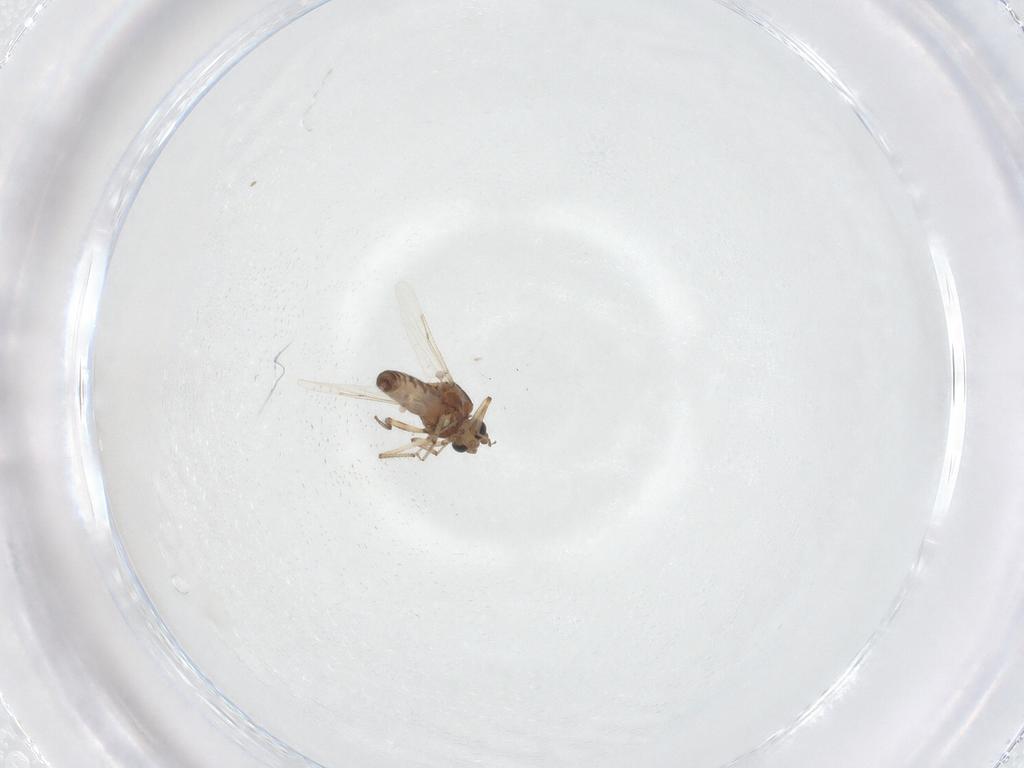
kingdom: Animalia
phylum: Arthropoda
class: Insecta
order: Diptera
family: Ceratopogonidae
